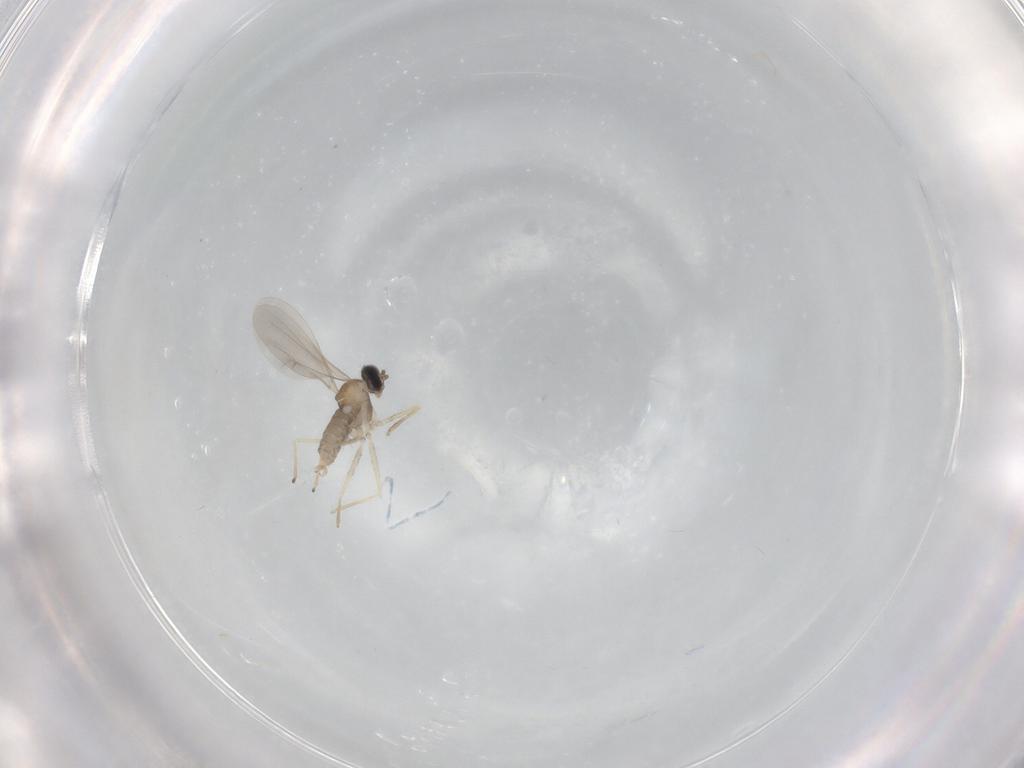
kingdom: Animalia
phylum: Arthropoda
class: Insecta
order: Diptera
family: Cecidomyiidae
